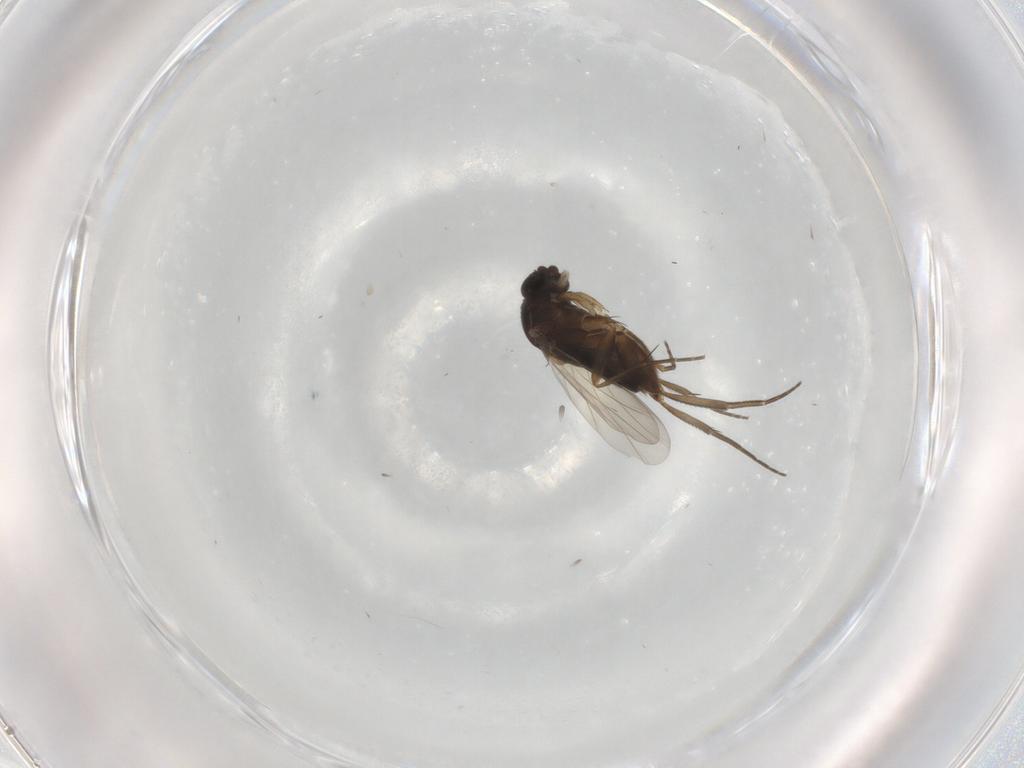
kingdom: Animalia
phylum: Arthropoda
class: Insecta
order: Diptera
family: Phoridae
